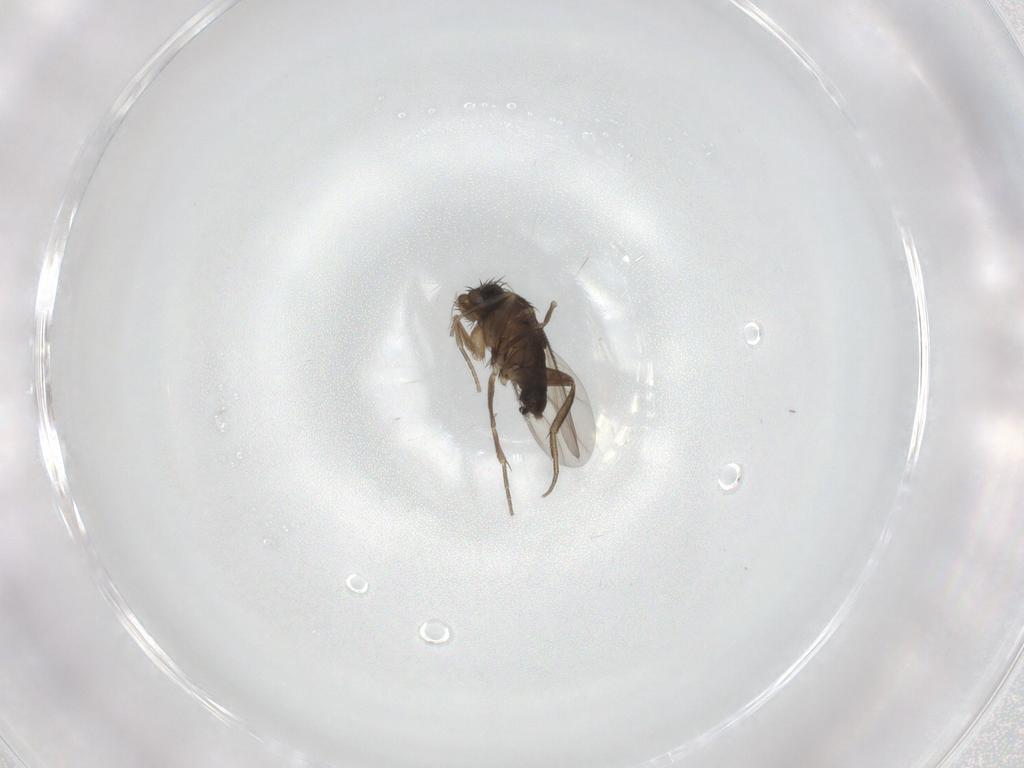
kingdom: Animalia
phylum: Arthropoda
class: Insecta
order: Diptera
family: Phoridae
